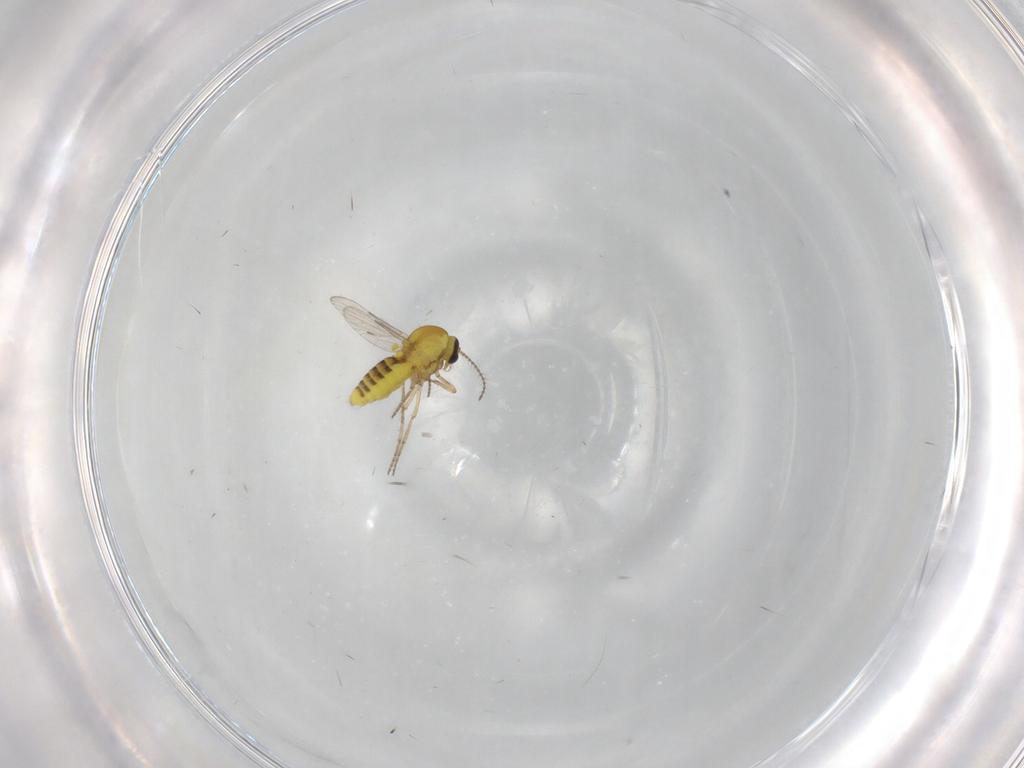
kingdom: Animalia
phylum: Arthropoda
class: Insecta
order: Diptera
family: Ceratopogonidae
